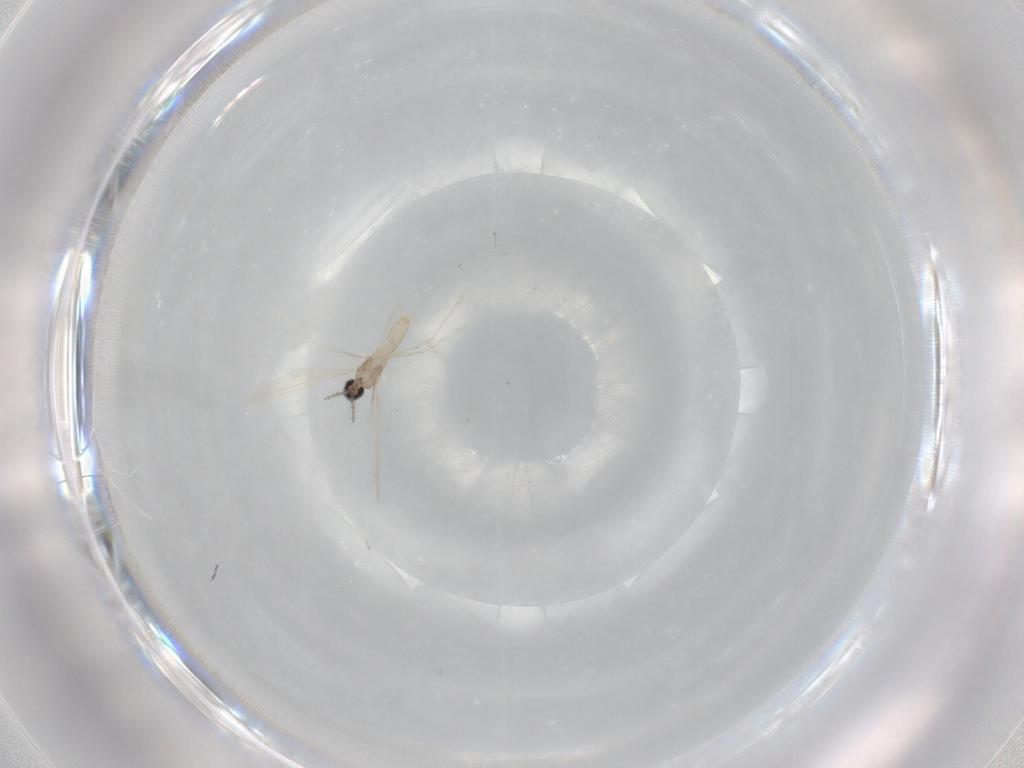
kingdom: Animalia
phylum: Arthropoda
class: Insecta
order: Diptera
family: Cecidomyiidae
